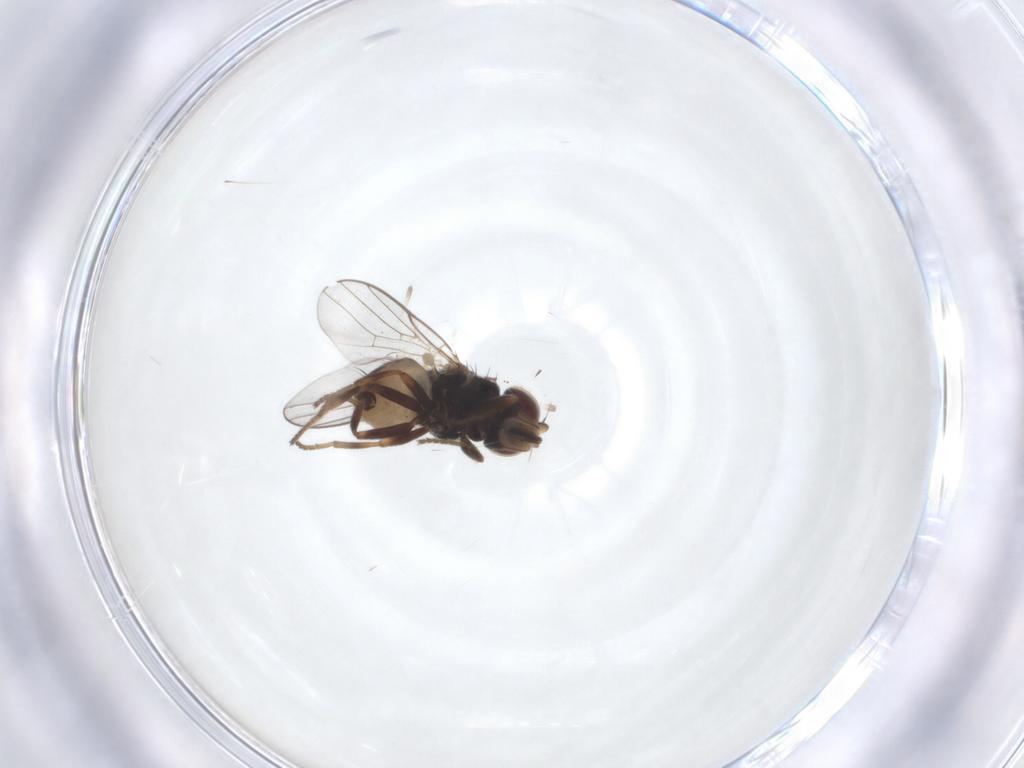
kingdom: Animalia
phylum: Arthropoda
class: Insecta
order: Diptera
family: Chloropidae
